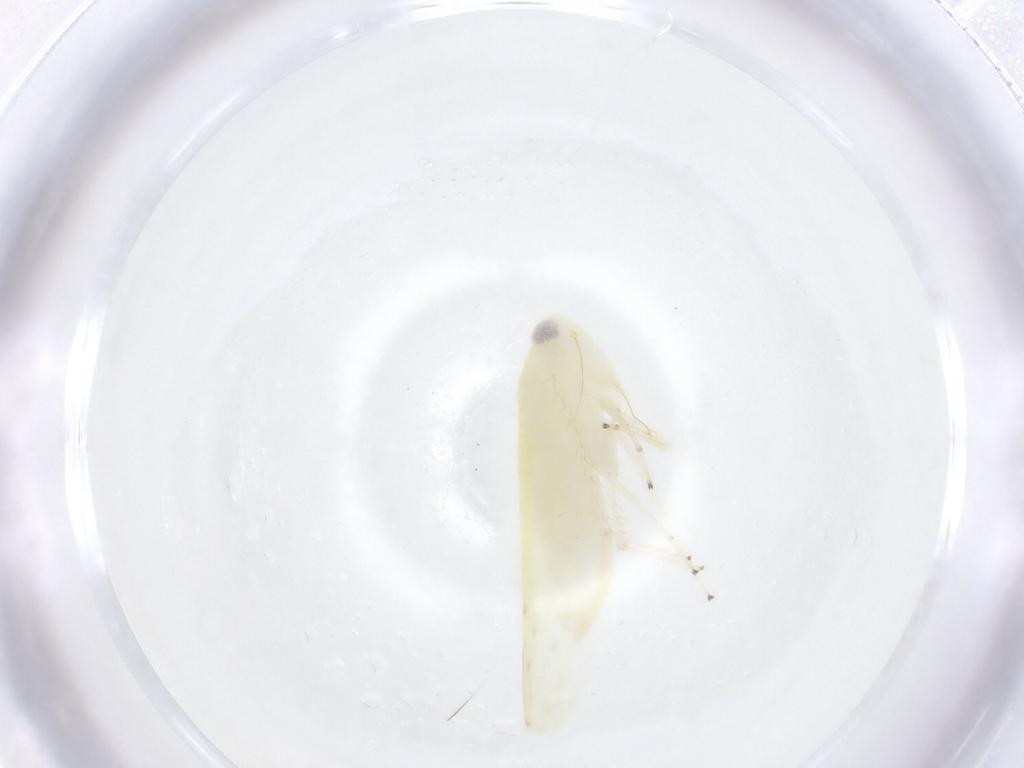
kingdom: Animalia
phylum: Arthropoda
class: Insecta
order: Hemiptera
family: Cicadellidae
